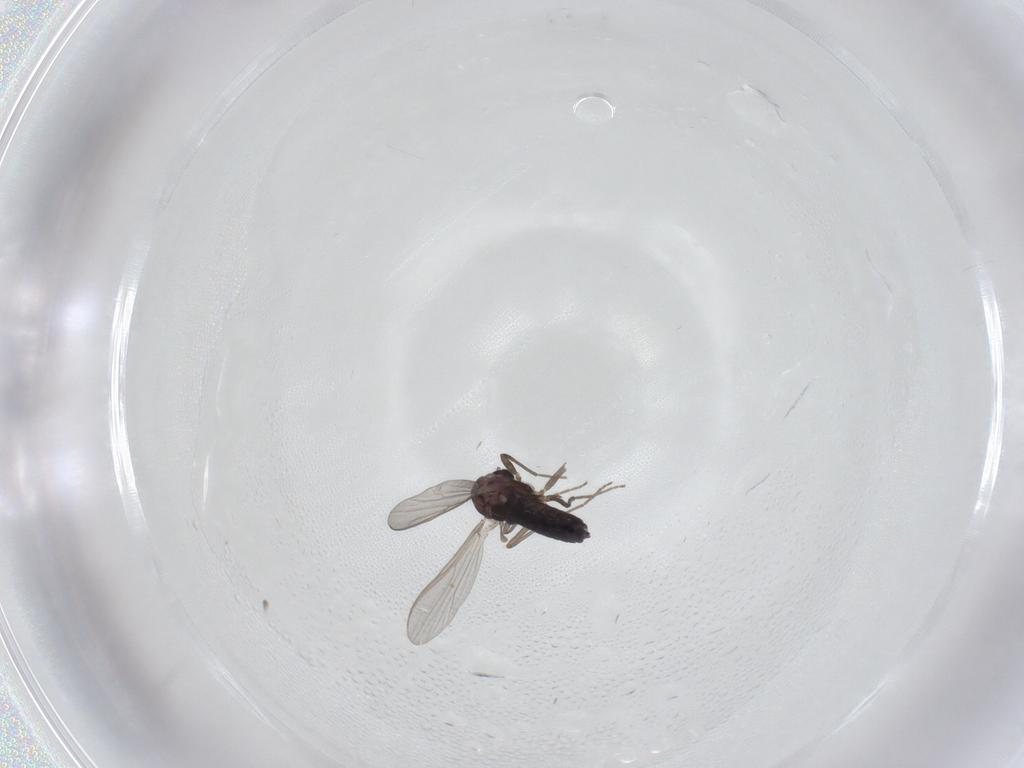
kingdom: Animalia
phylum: Arthropoda
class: Insecta
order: Diptera
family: Chironomidae
